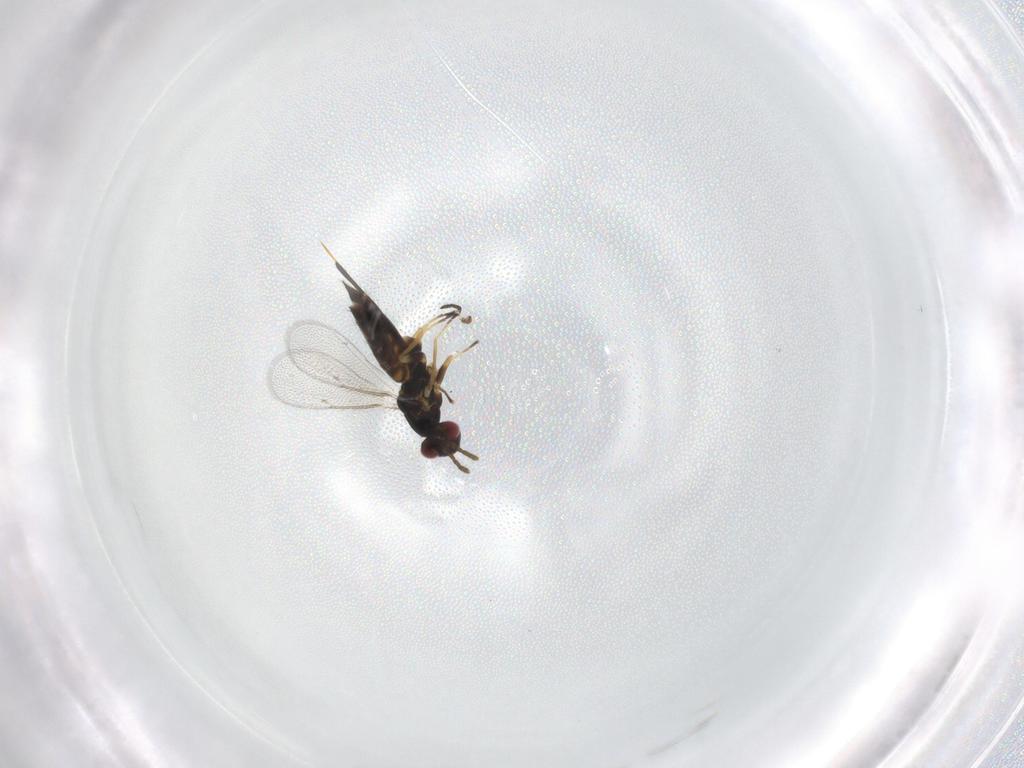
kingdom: Animalia
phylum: Arthropoda
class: Insecta
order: Hymenoptera
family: Eulophidae
